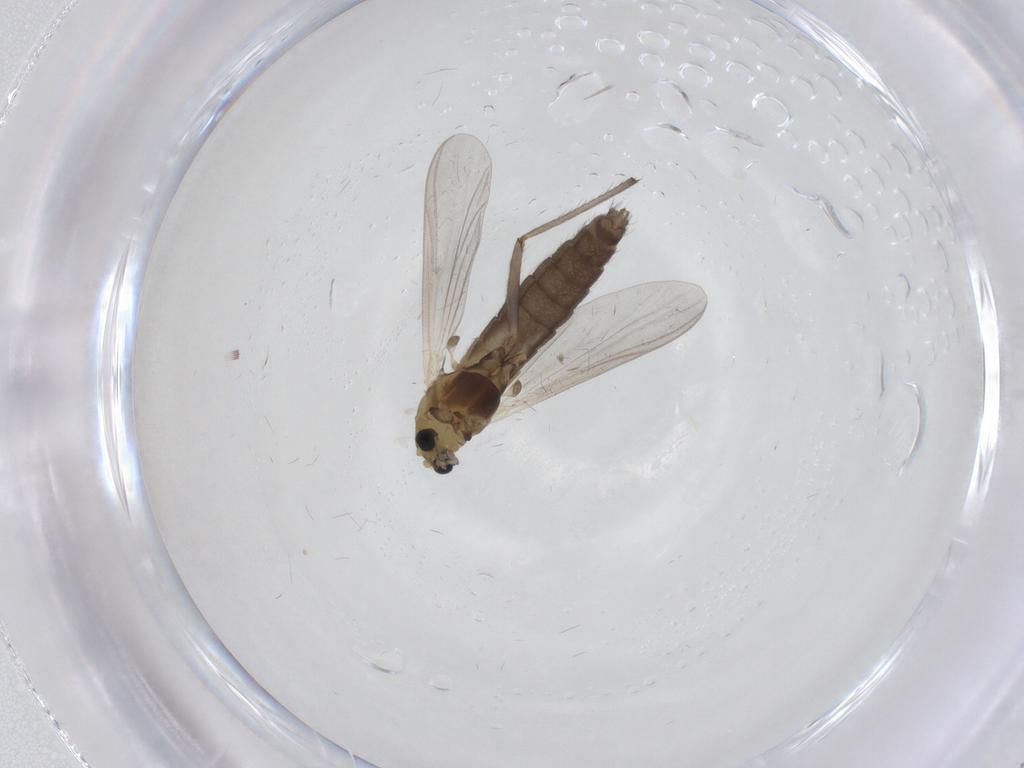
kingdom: Animalia
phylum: Arthropoda
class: Insecta
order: Diptera
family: Chironomidae
